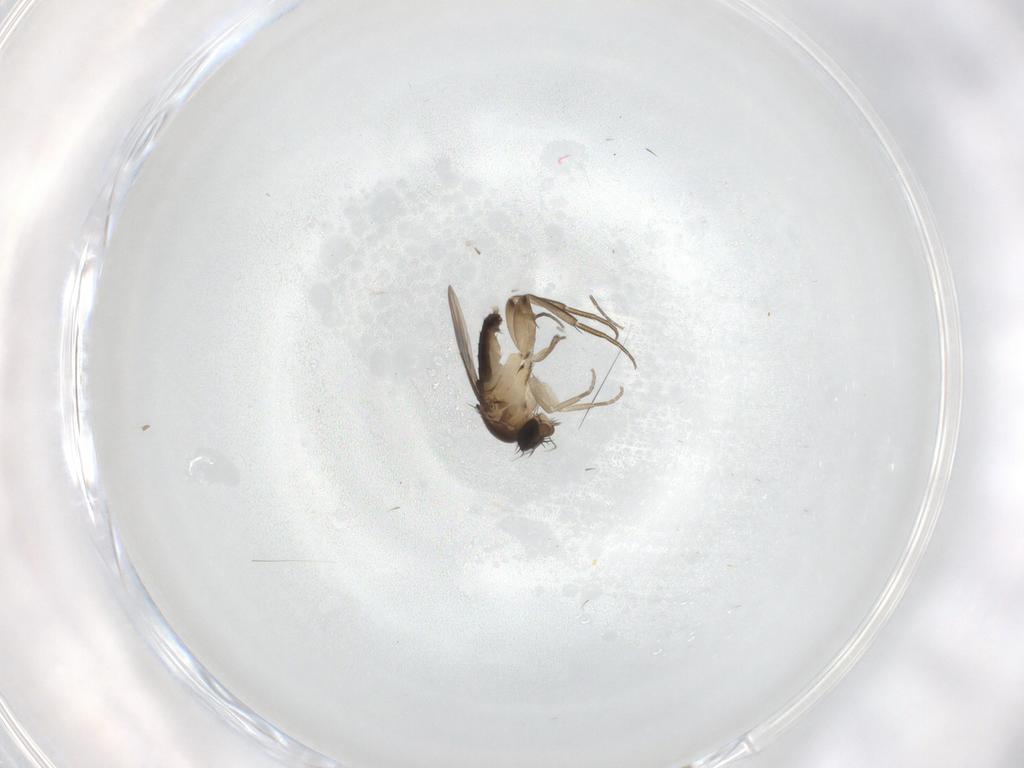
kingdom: Animalia
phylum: Arthropoda
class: Insecta
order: Diptera
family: Phoridae
